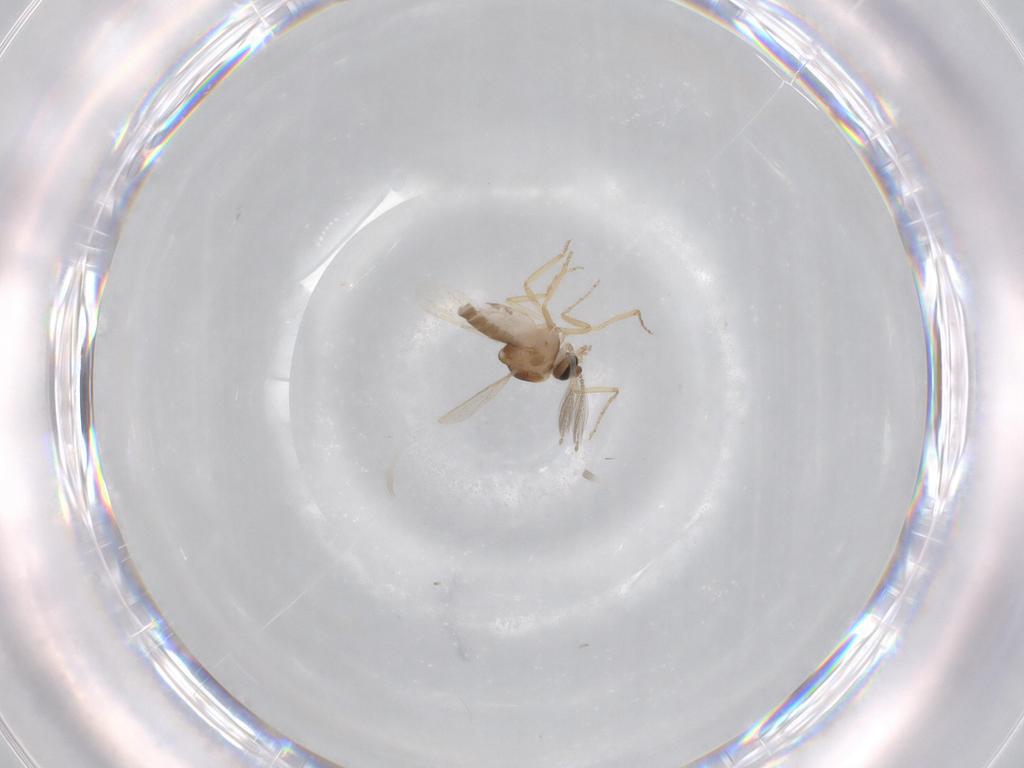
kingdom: Animalia
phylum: Arthropoda
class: Insecta
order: Diptera
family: Ceratopogonidae
